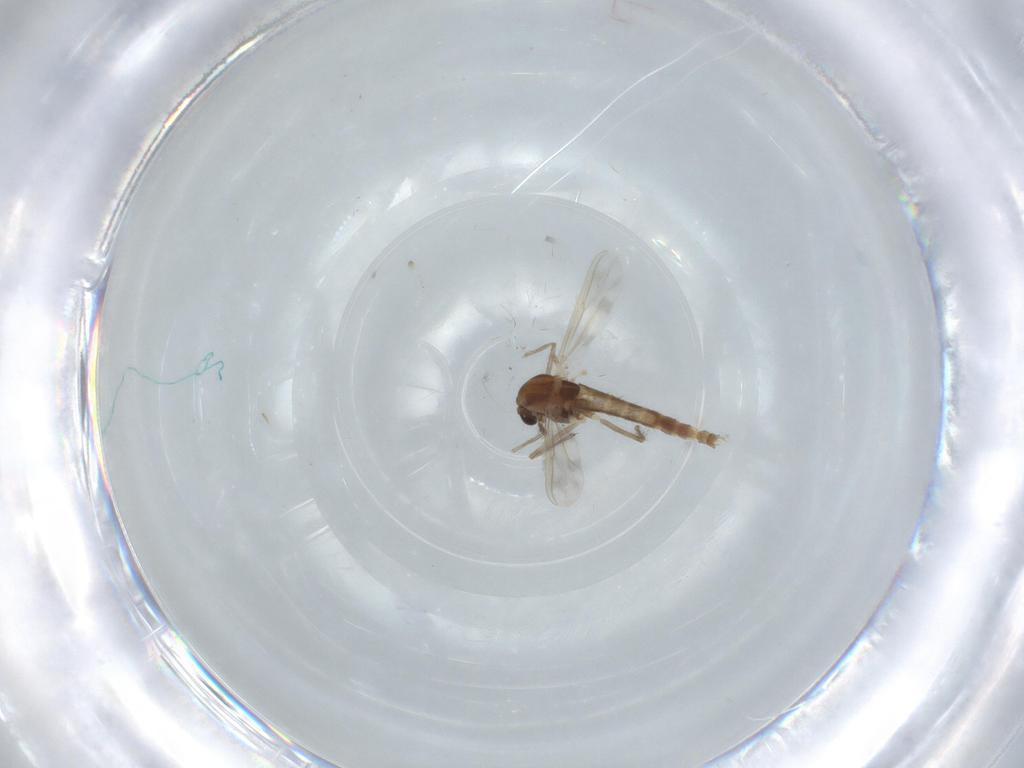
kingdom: Animalia
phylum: Arthropoda
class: Insecta
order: Diptera
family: Chironomidae
